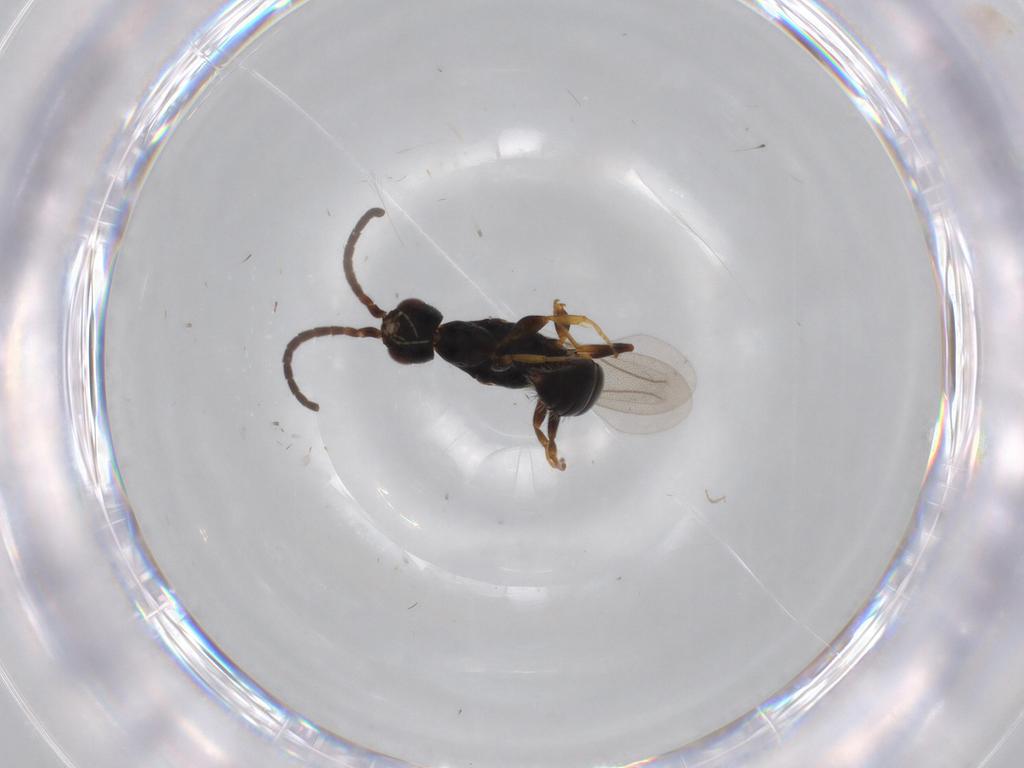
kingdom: Animalia
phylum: Arthropoda
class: Insecta
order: Hymenoptera
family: Bethylidae
